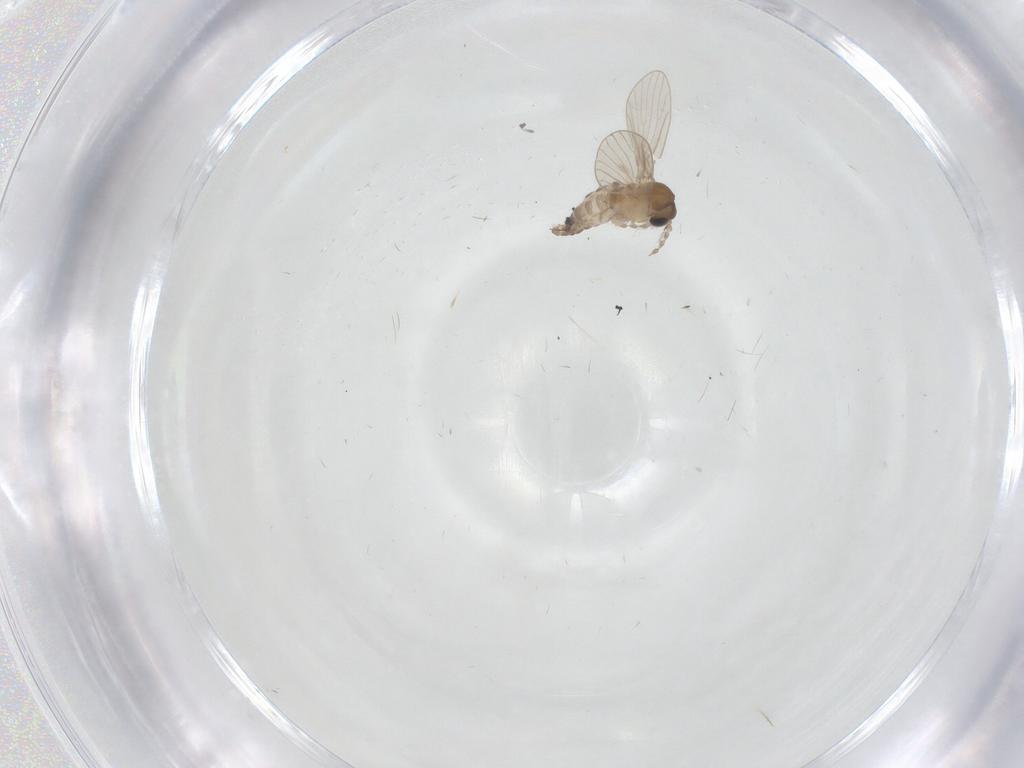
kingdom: Animalia
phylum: Arthropoda
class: Insecta
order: Diptera
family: Psychodidae
